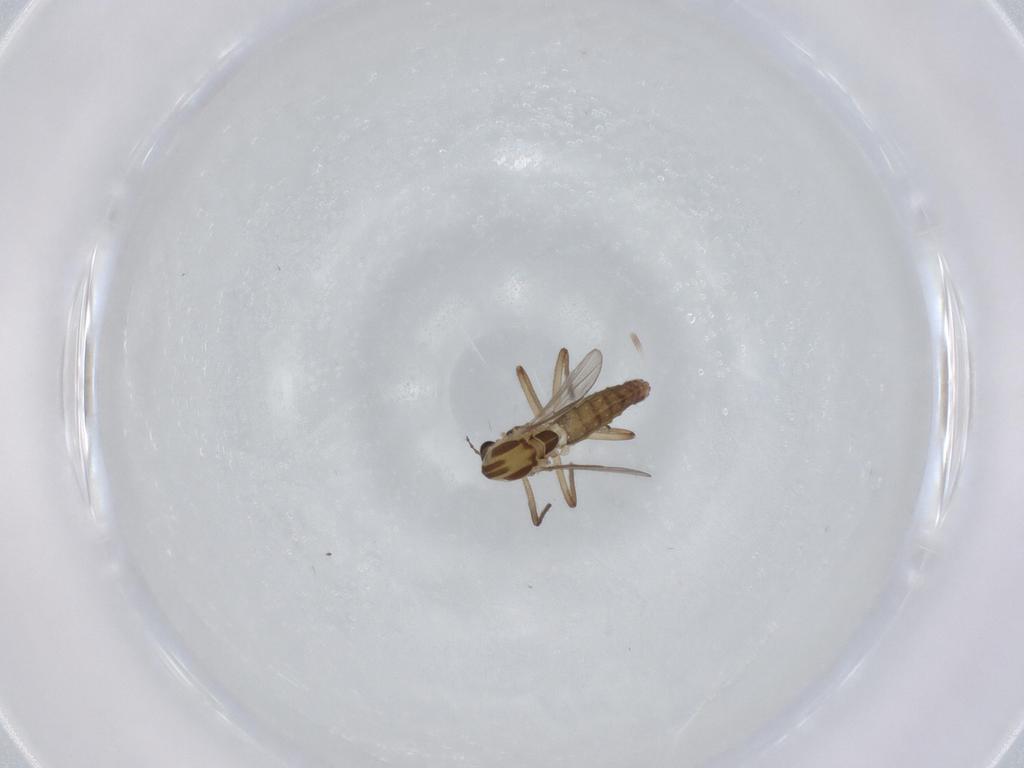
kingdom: Animalia
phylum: Arthropoda
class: Insecta
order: Diptera
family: Chironomidae
